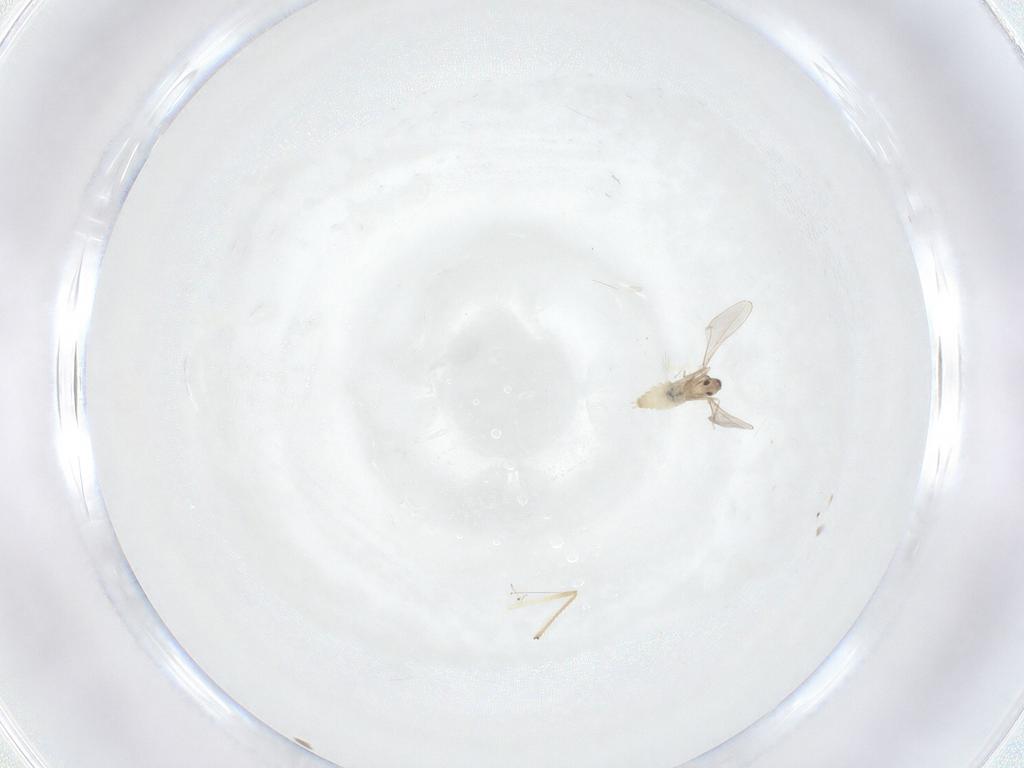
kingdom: Animalia
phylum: Arthropoda
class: Insecta
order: Diptera
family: Cecidomyiidae
